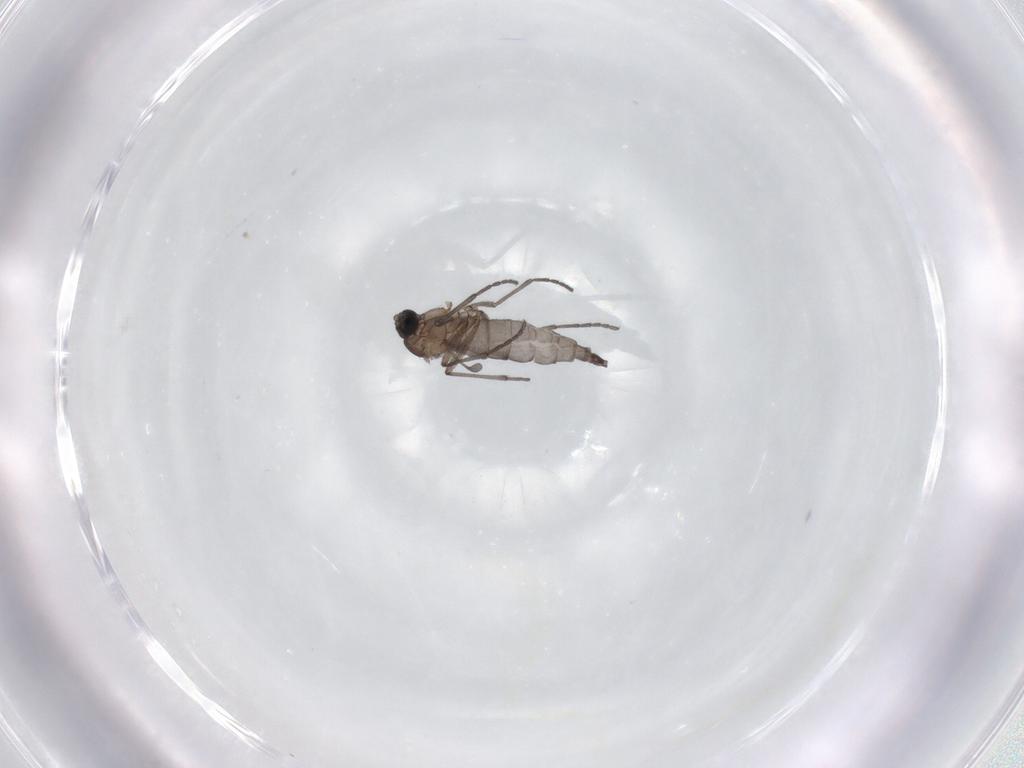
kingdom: Animalia
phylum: Arthropoda
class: Insecta
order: Diptera
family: Sciaridae
